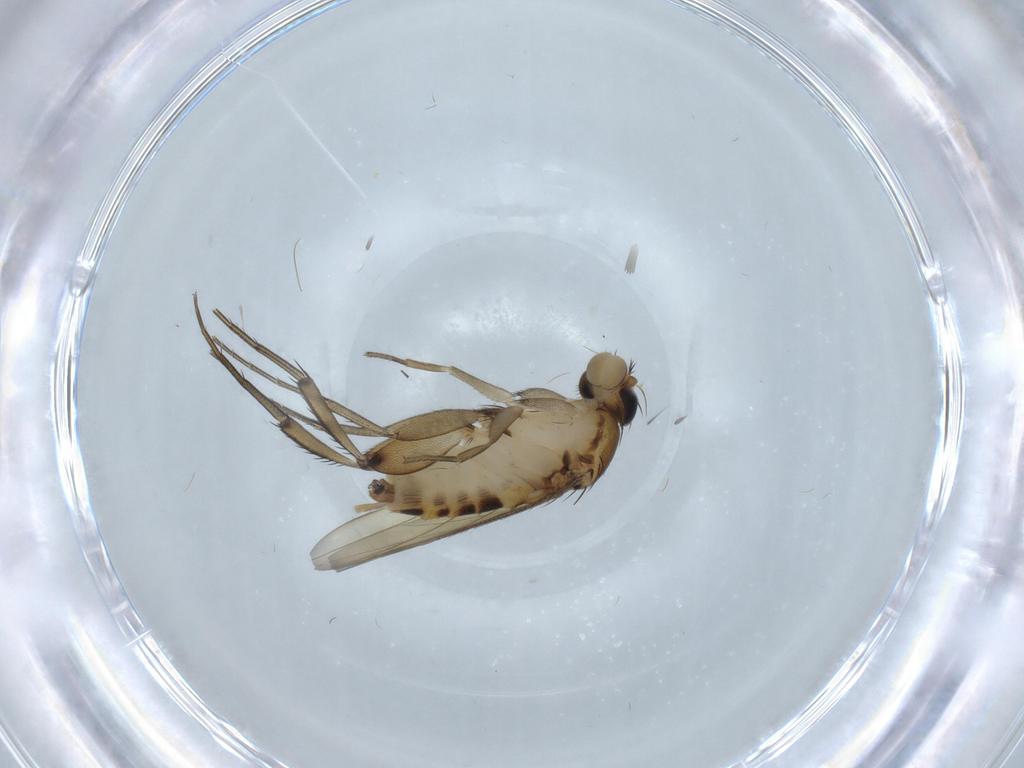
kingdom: Animalia
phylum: Arthropoda
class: Insecta
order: Diptera
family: Phoridae
